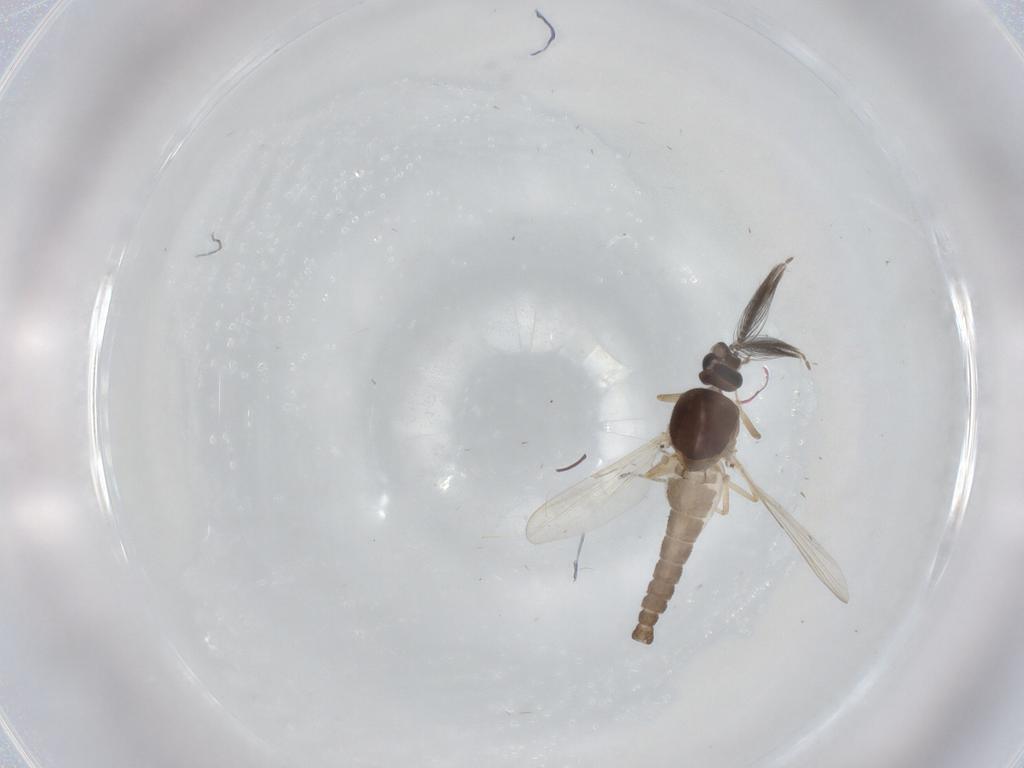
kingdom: Animalia
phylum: Arthropoda
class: Insecta
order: Diptera
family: Ceratopogonidae
